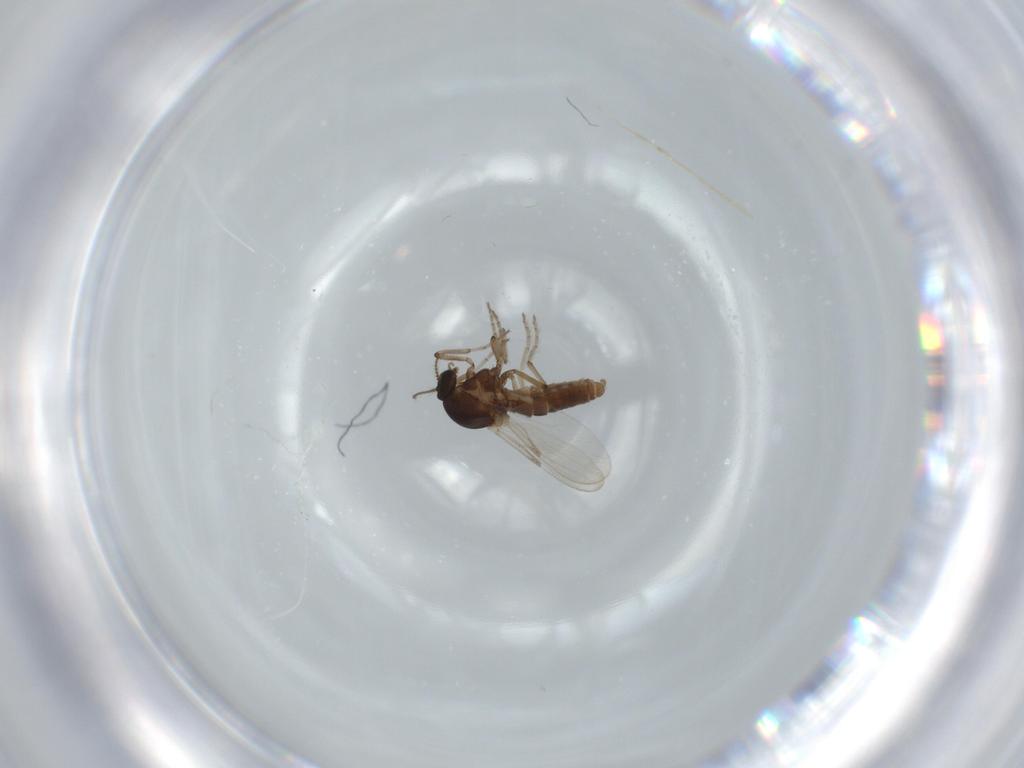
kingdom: Animalia
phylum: Arthropoda
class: Insecta
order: Diptera
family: Chironomidae
